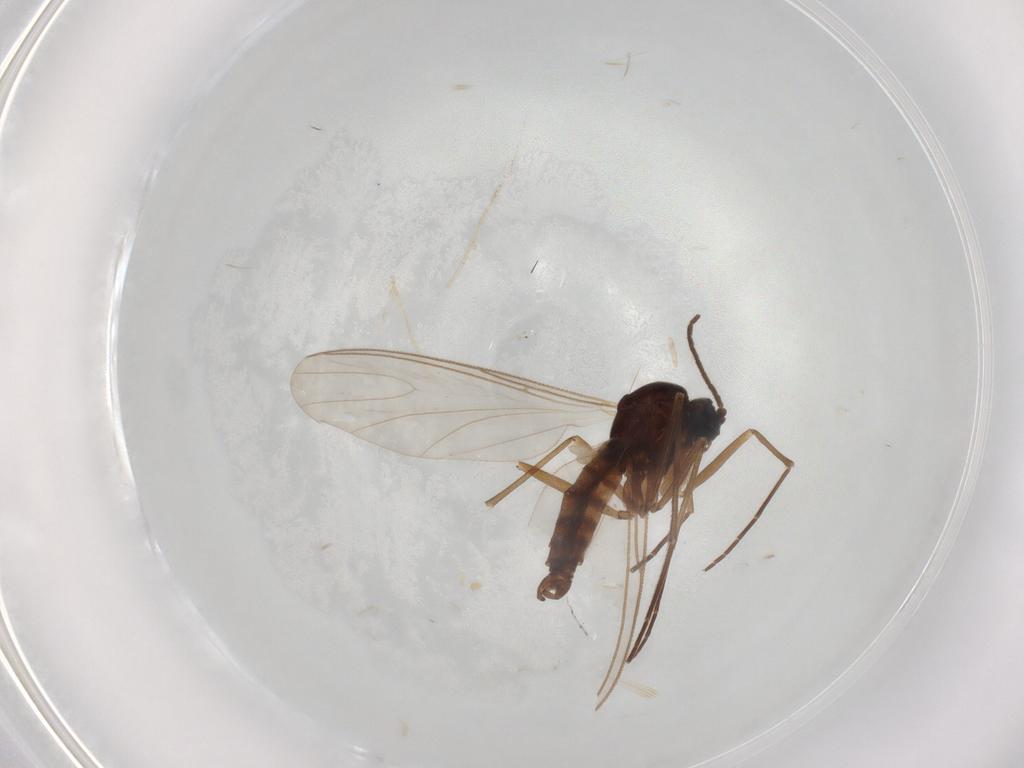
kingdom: Animalia
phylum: Arthropoda
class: Insecta
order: Diptera
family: Sciaridae
